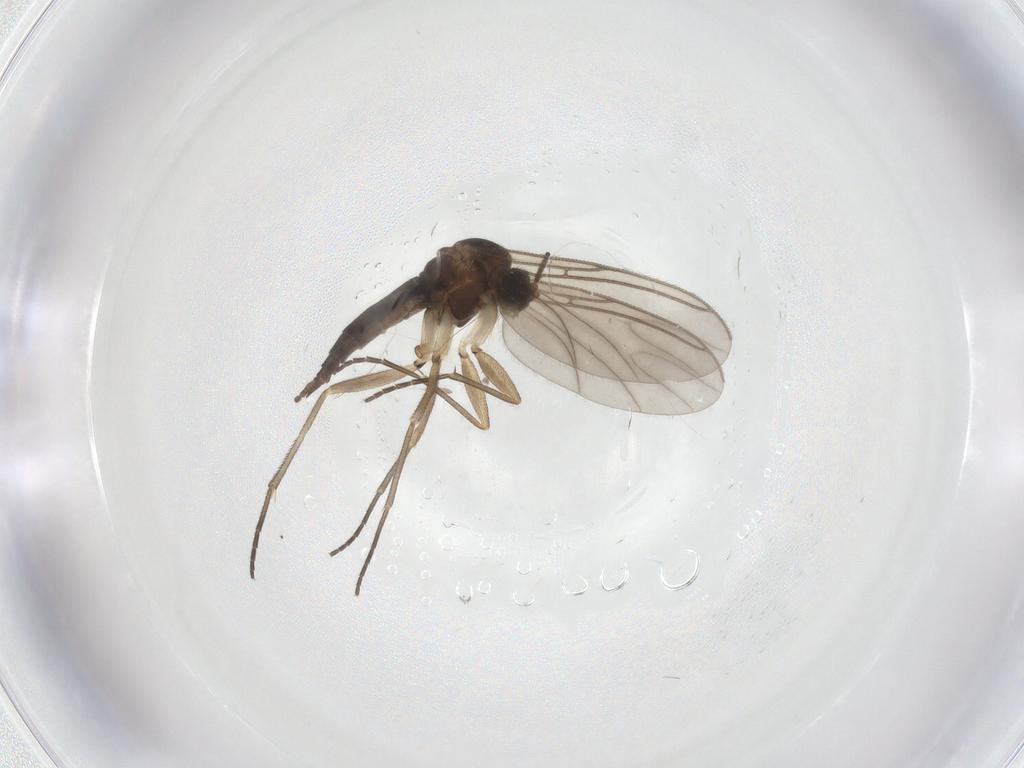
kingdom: Animalia
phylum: Arthropoda
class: Insecta
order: Diptera
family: Sciaridae
